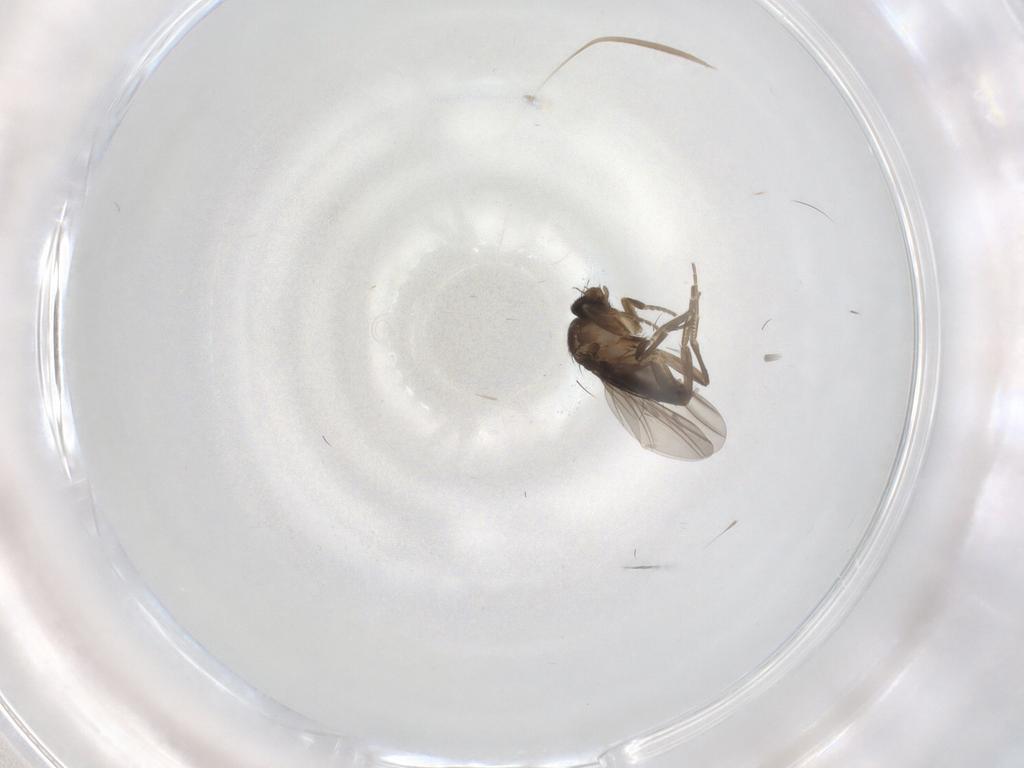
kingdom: Animalia
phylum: Arthropoda
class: Insecta
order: Diptera
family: Phoridae
